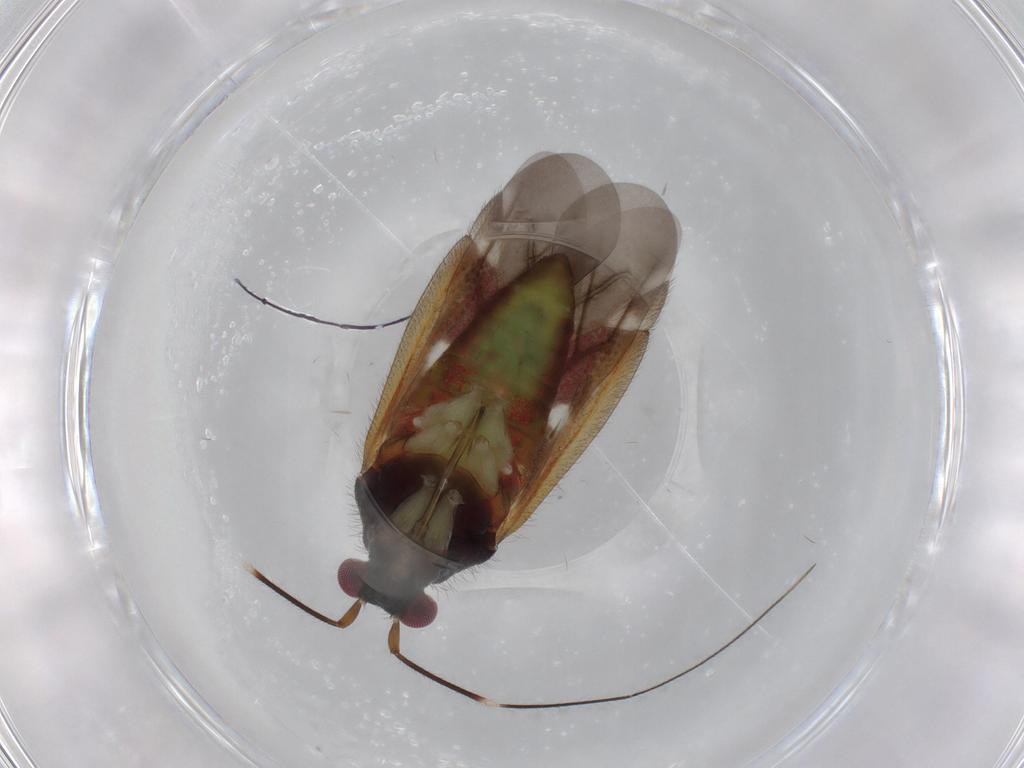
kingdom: Animalia
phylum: Arthropoda
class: Insecta
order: Hemiptera
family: Miridae
